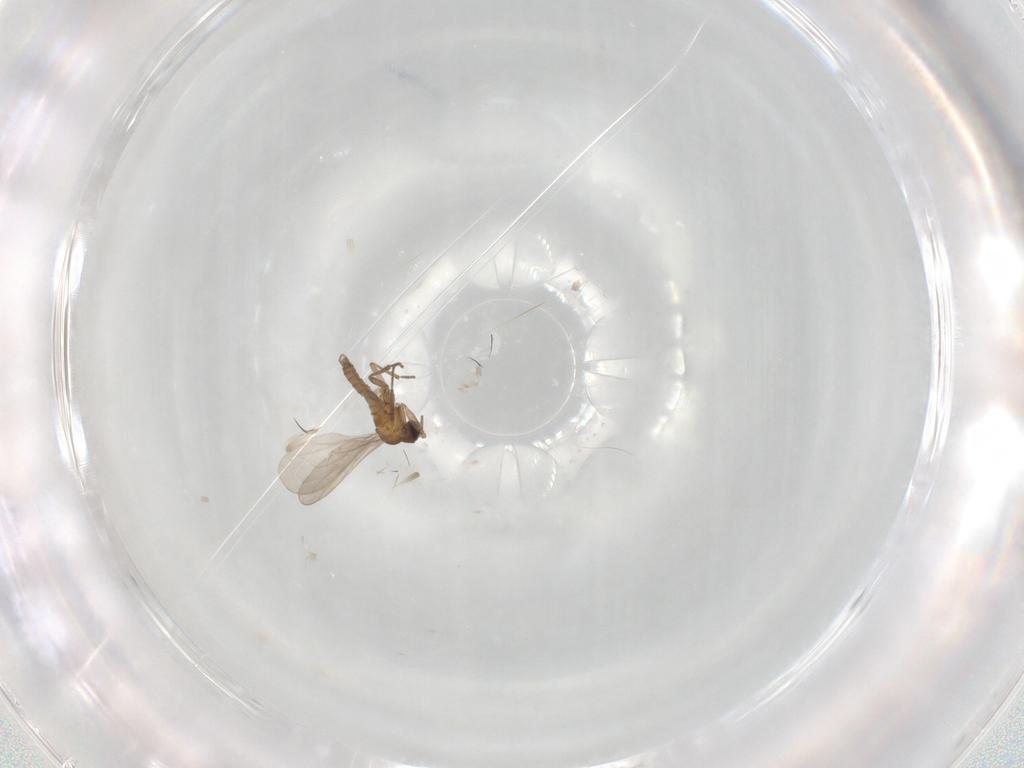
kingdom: Animalia
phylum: Arthropoda
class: Insecta
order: Diptera
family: Sciaridae
